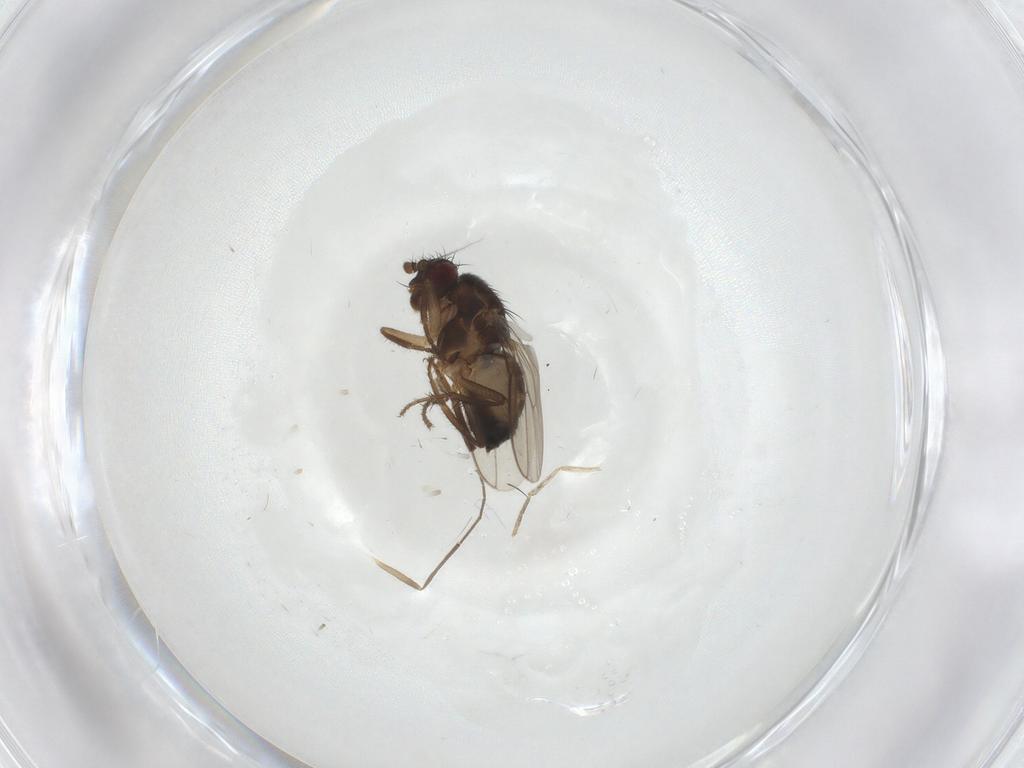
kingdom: Animalia
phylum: Arthropoda
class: Insecta
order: Diptera
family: Sphaeroceridae
